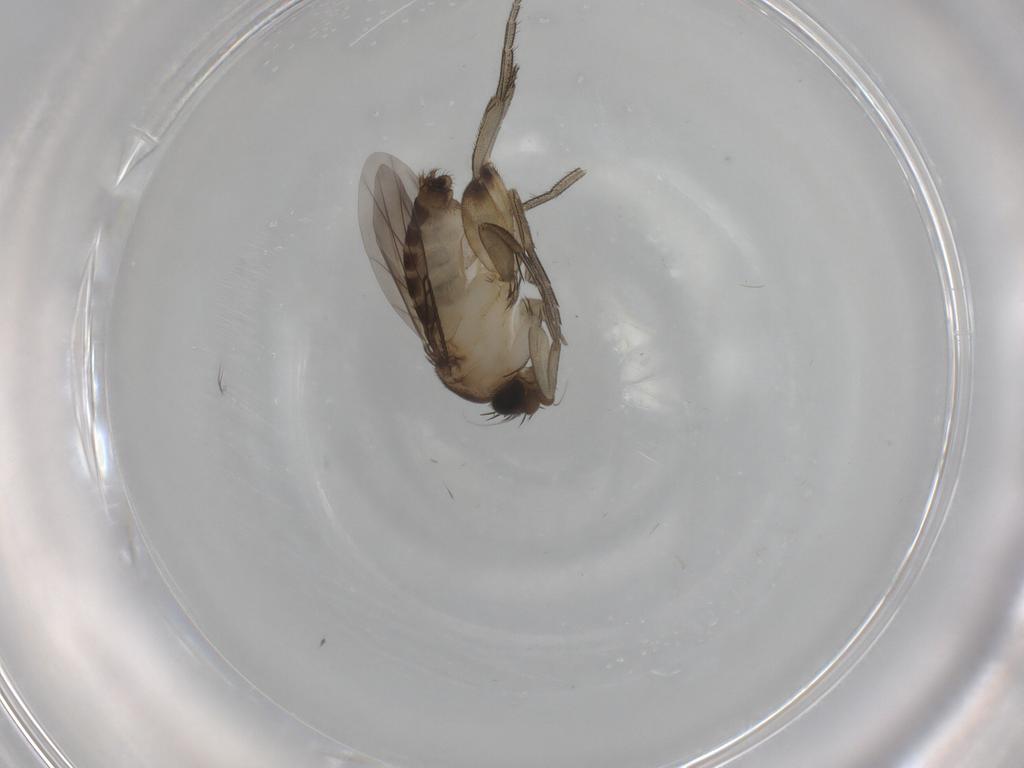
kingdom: Animalia
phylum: Arthropoda
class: Insecta
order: Diptera
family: Phoridae
